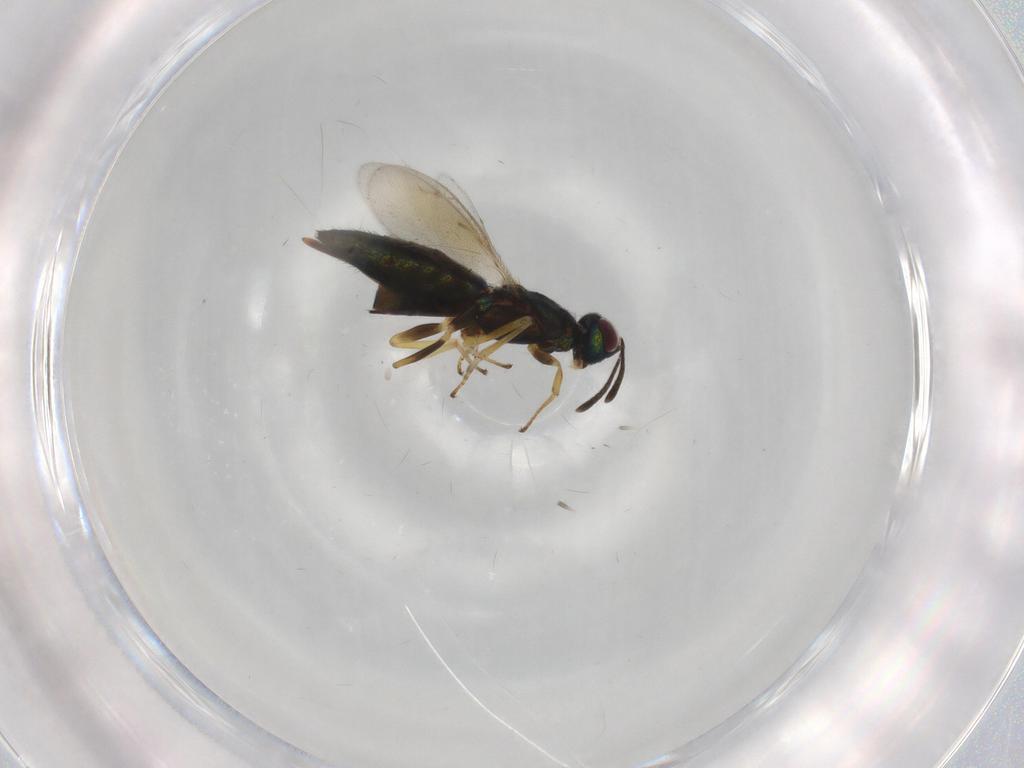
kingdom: Animalia
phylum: Arthropoda
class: Insecta
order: Hymenoptera
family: Eupelmidae
